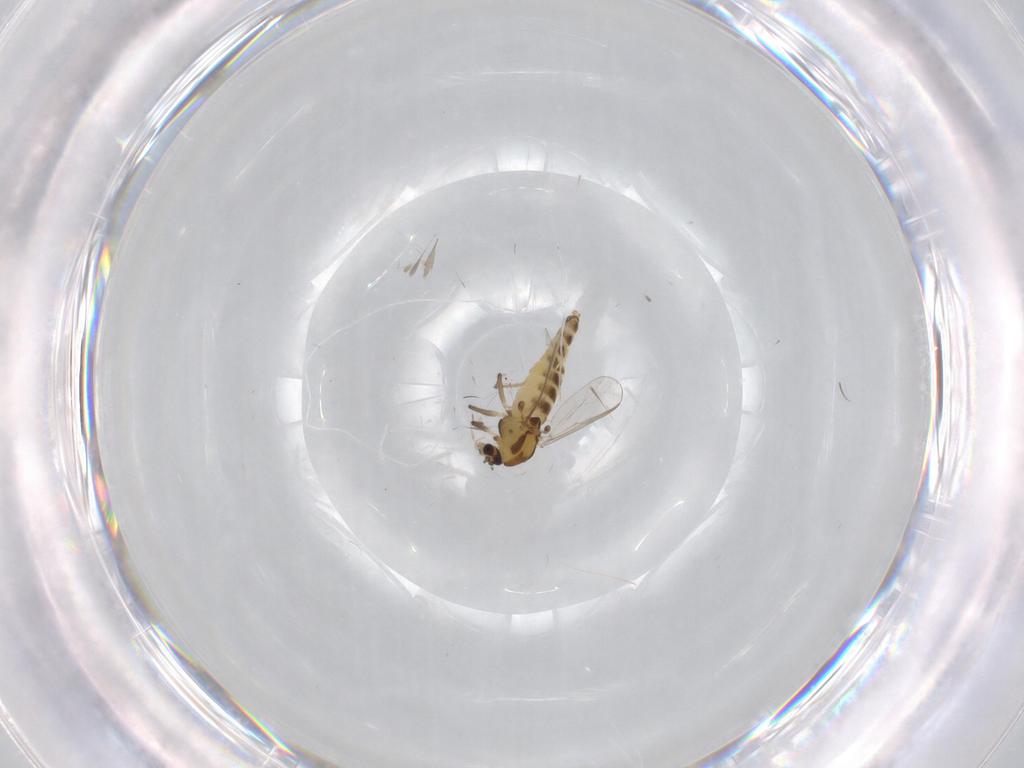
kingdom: Animalia
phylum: Arthropoda
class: Insecta
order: Diptera
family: Chironomidae
